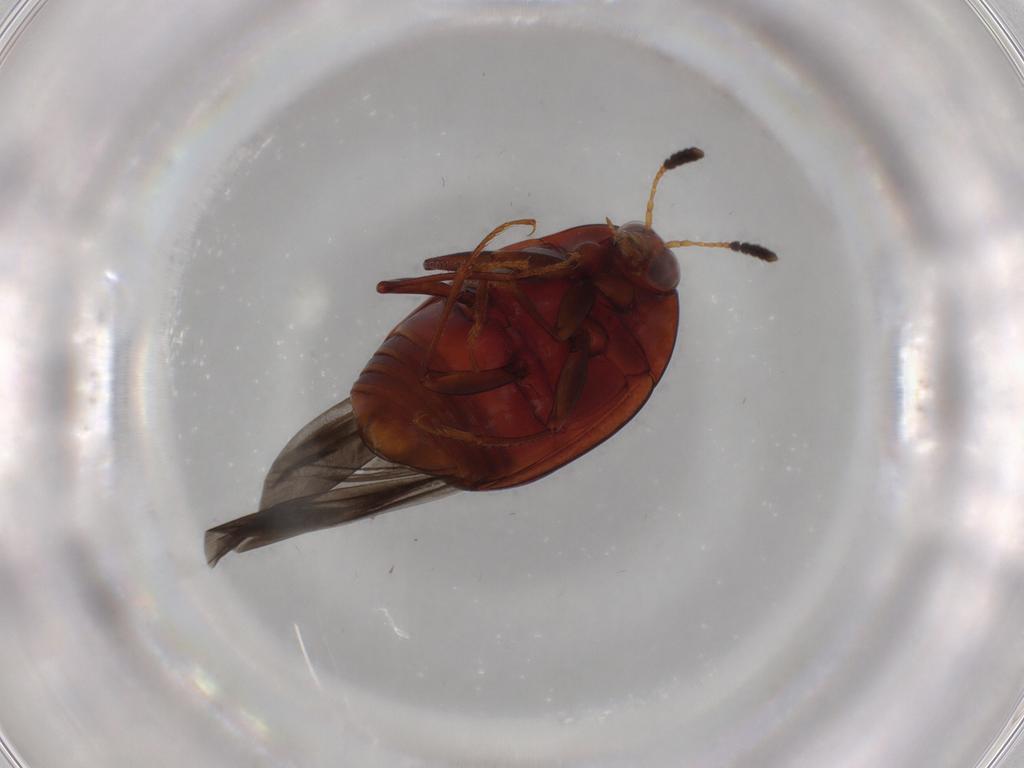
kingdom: Animalia
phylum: Arthropoda
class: Insecta
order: Coleoptera
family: Staphylinidae
